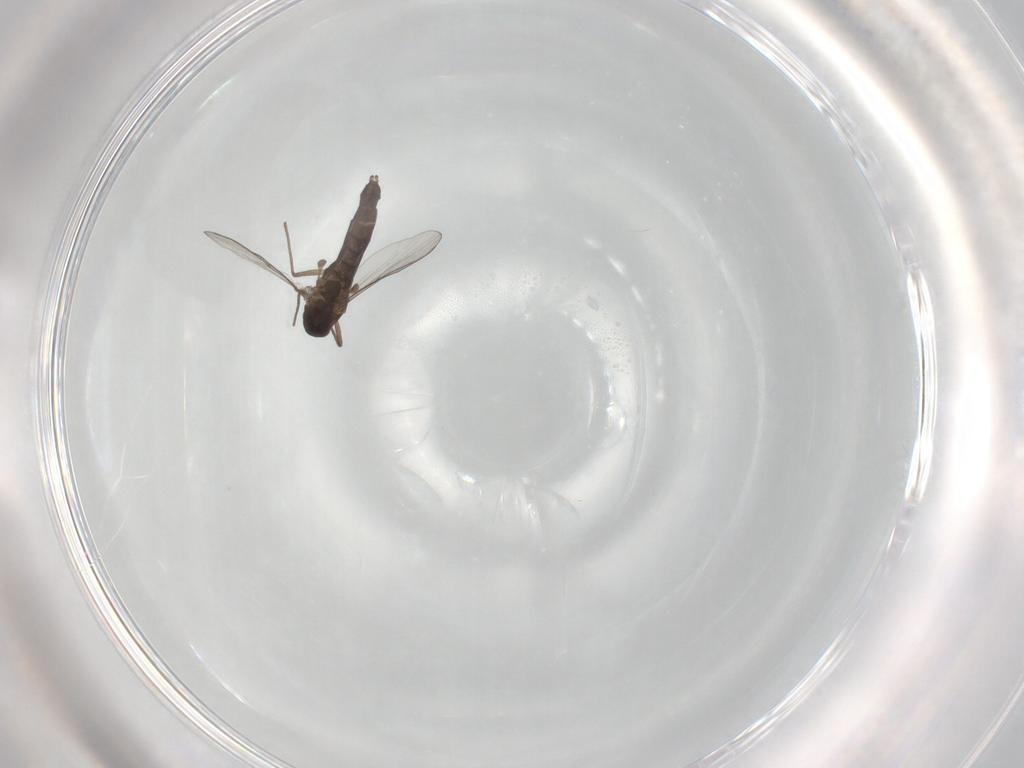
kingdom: Animalia
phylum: Arthropoda
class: Insecta
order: Diptera
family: Chironomidae
